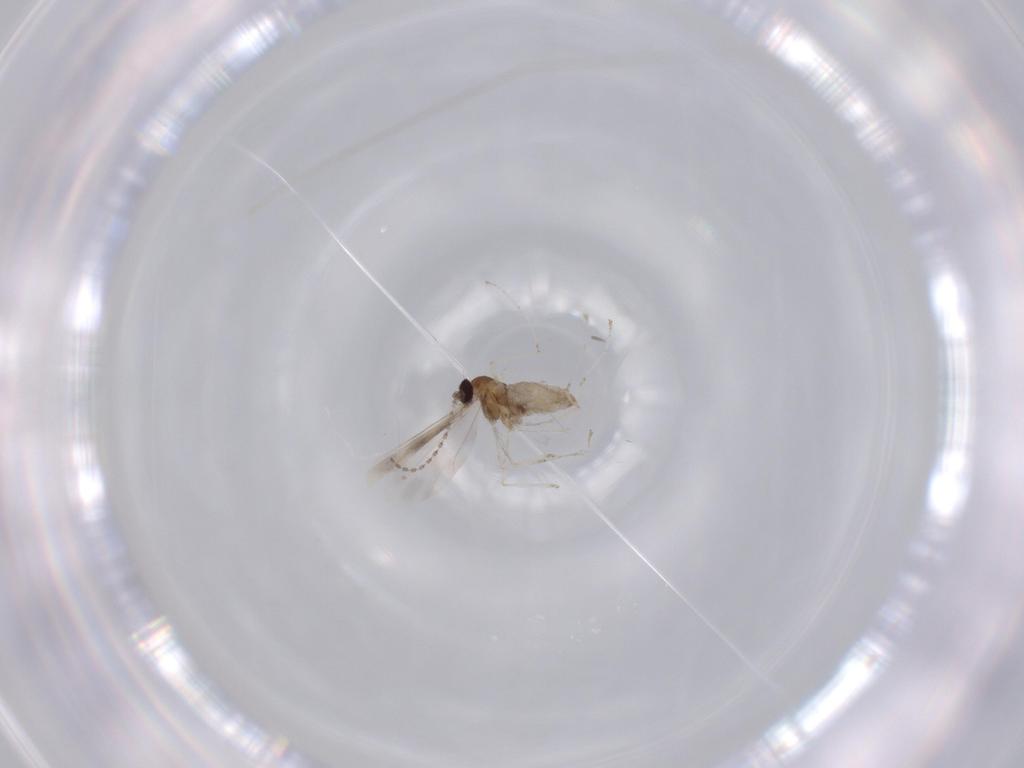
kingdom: Animalia
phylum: Arthropoda
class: Insecta
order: Diptera
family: Cecidomyiidae
